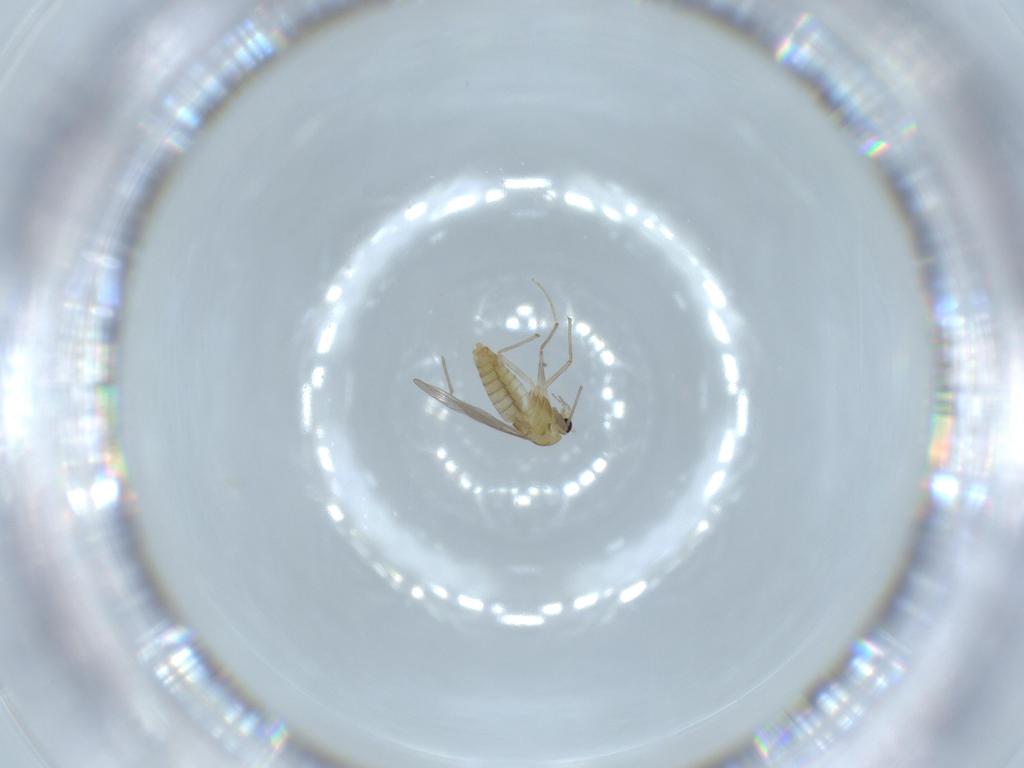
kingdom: Animalia
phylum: Arthropoda
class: Insecta
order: Diptera
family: Chironomidae
